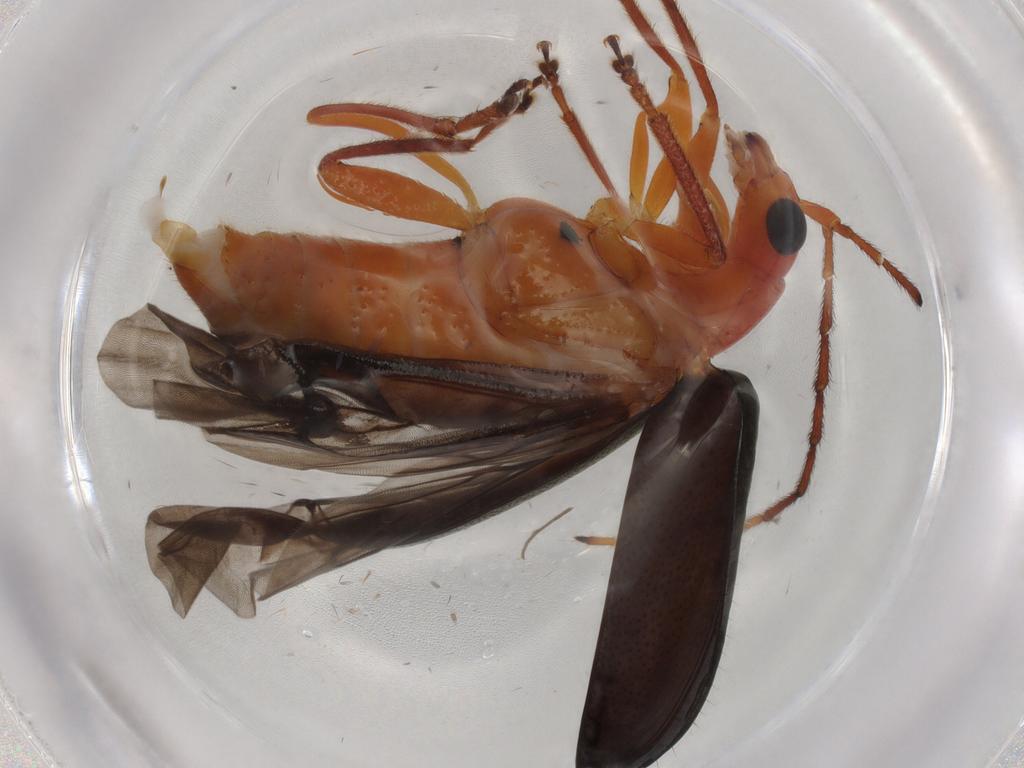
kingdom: Animalia
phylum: Arthropoda
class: Insecta
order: Coleoptera
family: Chrysomelidae
